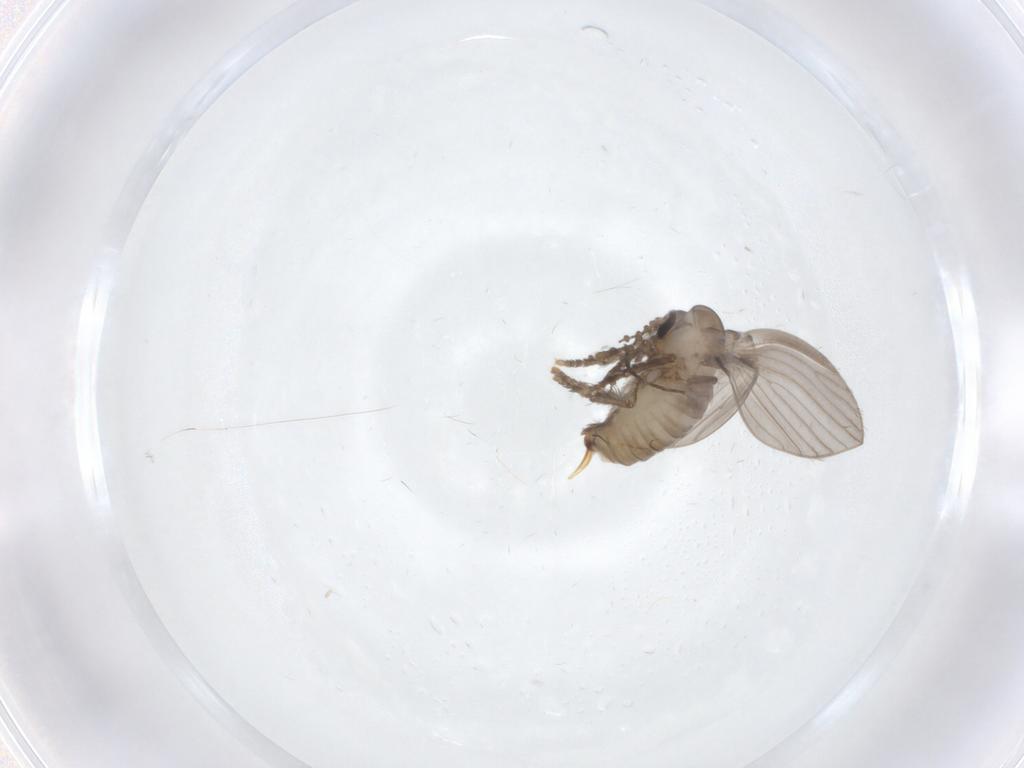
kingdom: Animalia
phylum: Arthropoda
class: Insecta
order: Diptera
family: Psychodidae
